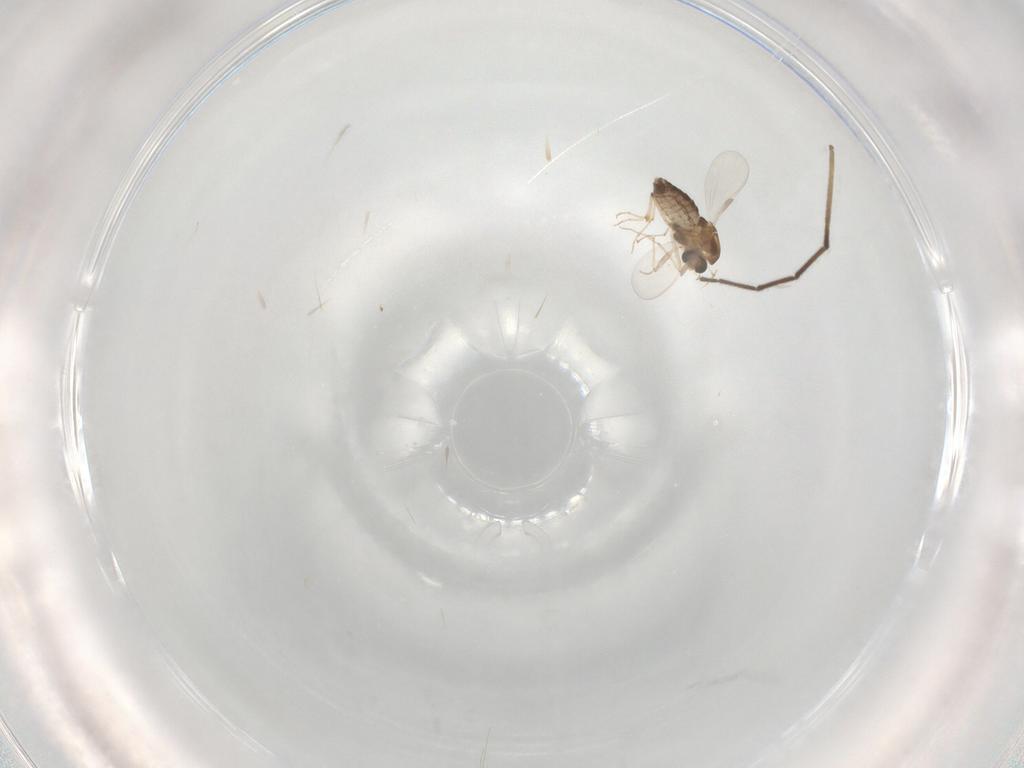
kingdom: Animalia
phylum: Arthropoda
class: Insecta
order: Diptera
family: Chironomidae
